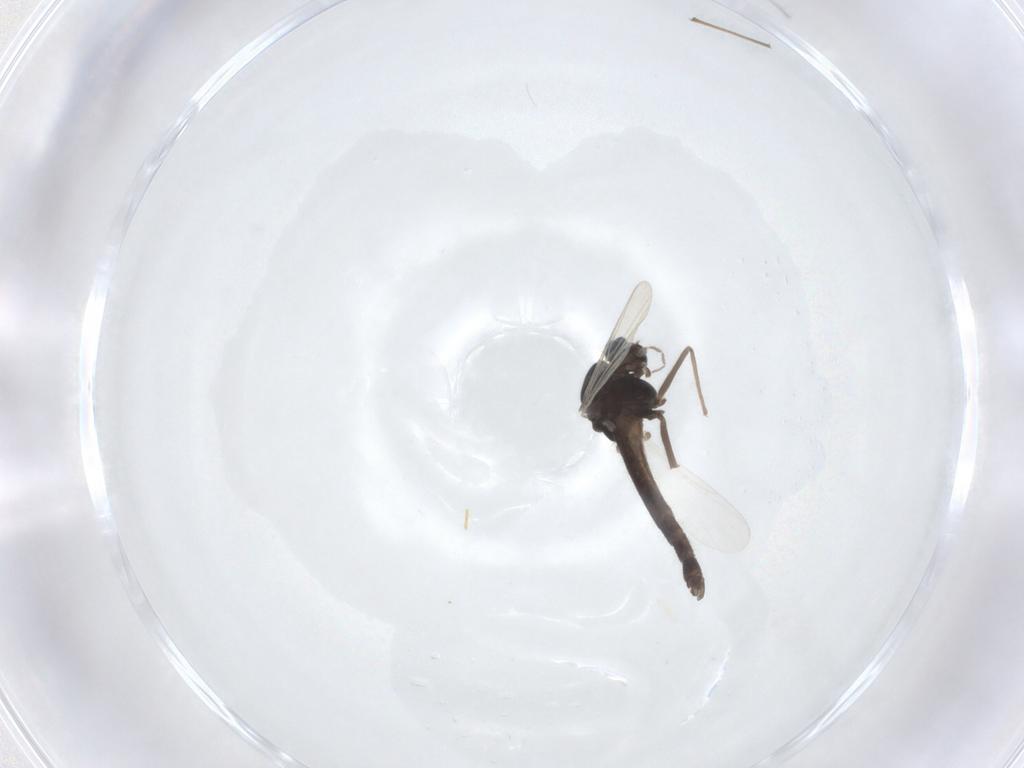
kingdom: Animalia
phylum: Arthropoda
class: Insecta
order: Diptera
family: Chironomidae
